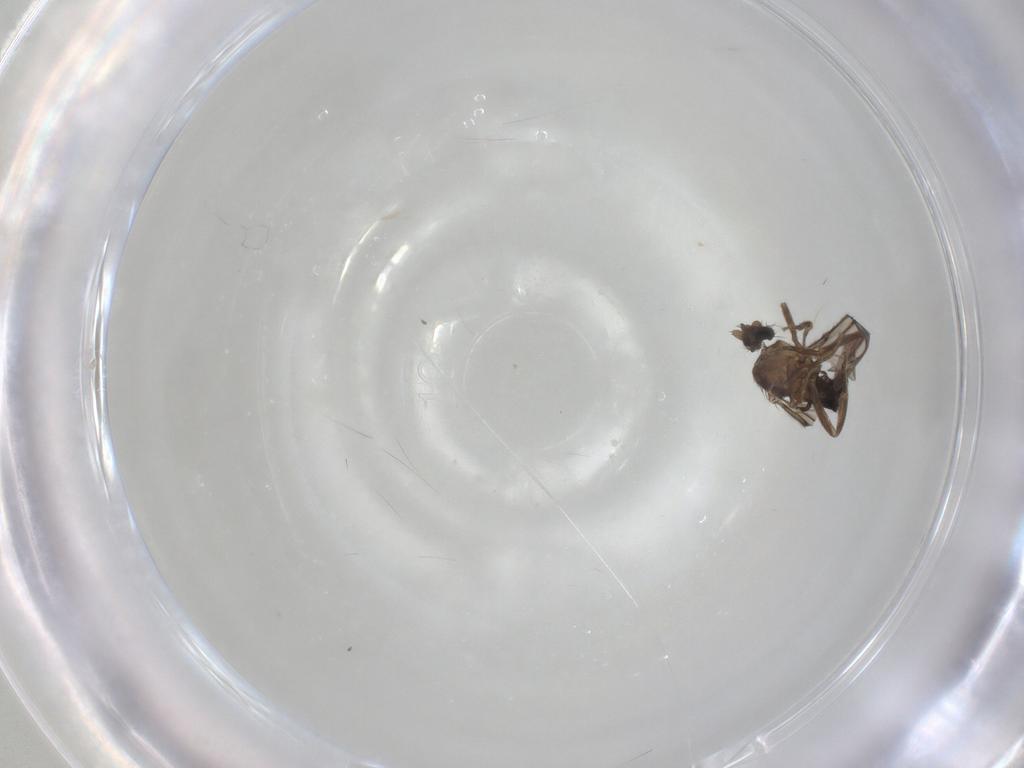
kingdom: Animalia
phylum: Arthropoda
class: Insecta
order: Diptera
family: Phoridae
